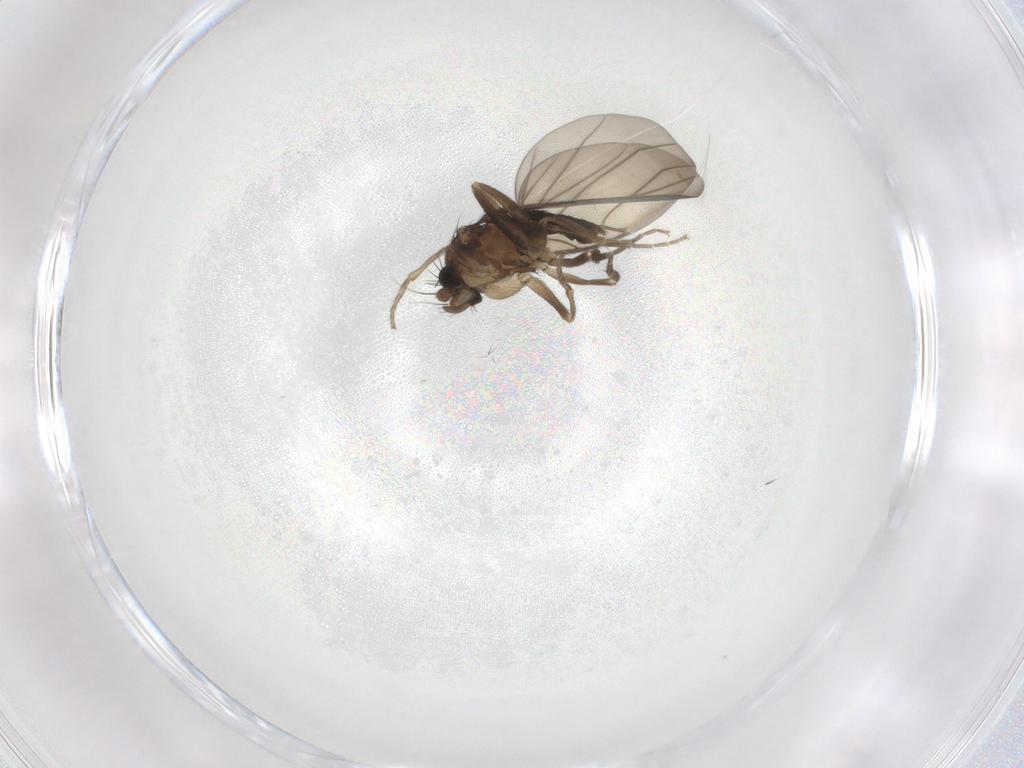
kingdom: Animalia
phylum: Arthropoda
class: Insecta
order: Diptera
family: Phoridae
